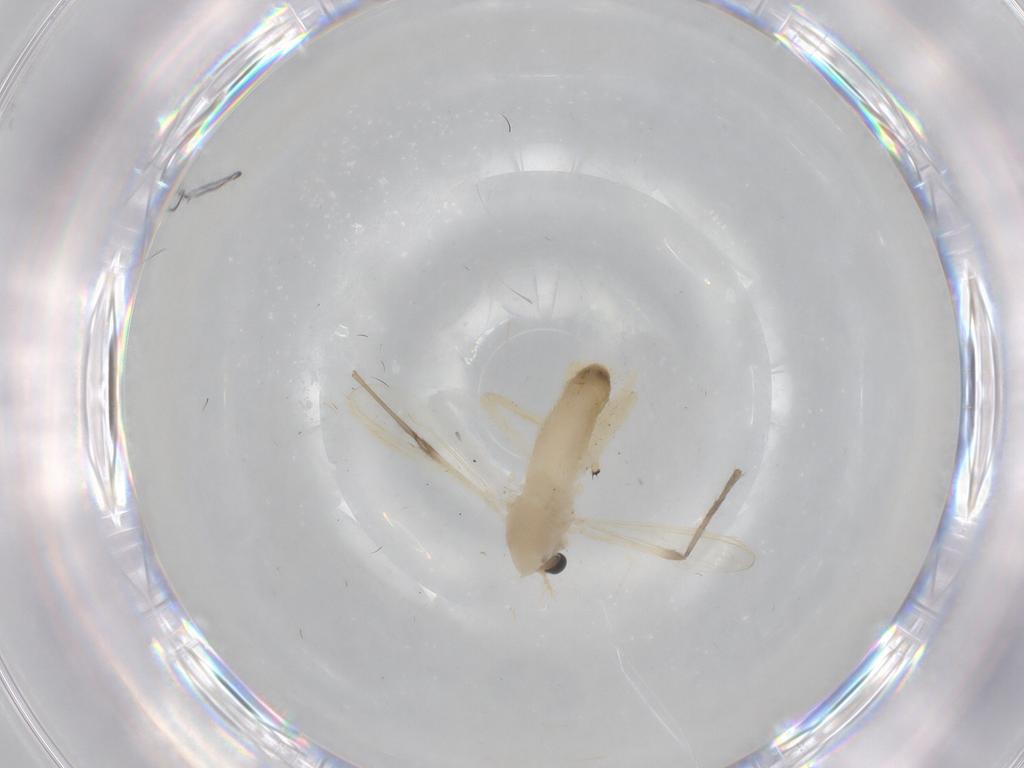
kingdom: Animalia
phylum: Arthropoda
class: Insecta
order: Diptera
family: Chironomidae
